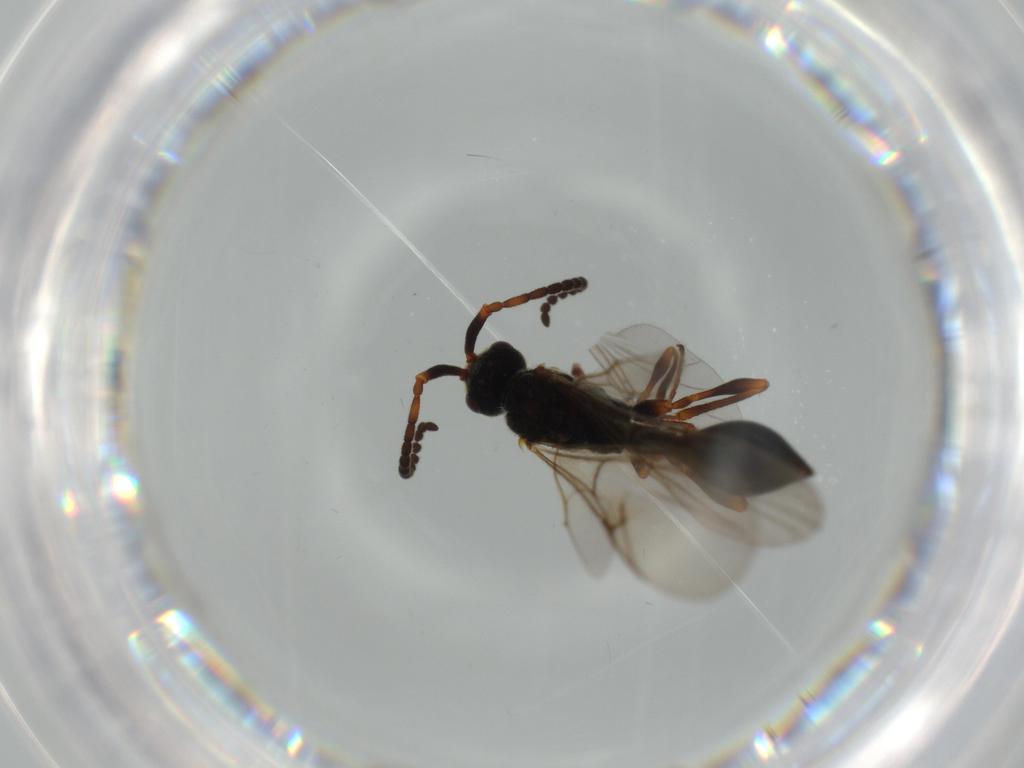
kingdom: Animalia
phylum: Arthropoda
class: Insecta
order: Hymenoptera
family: Diapriidae
